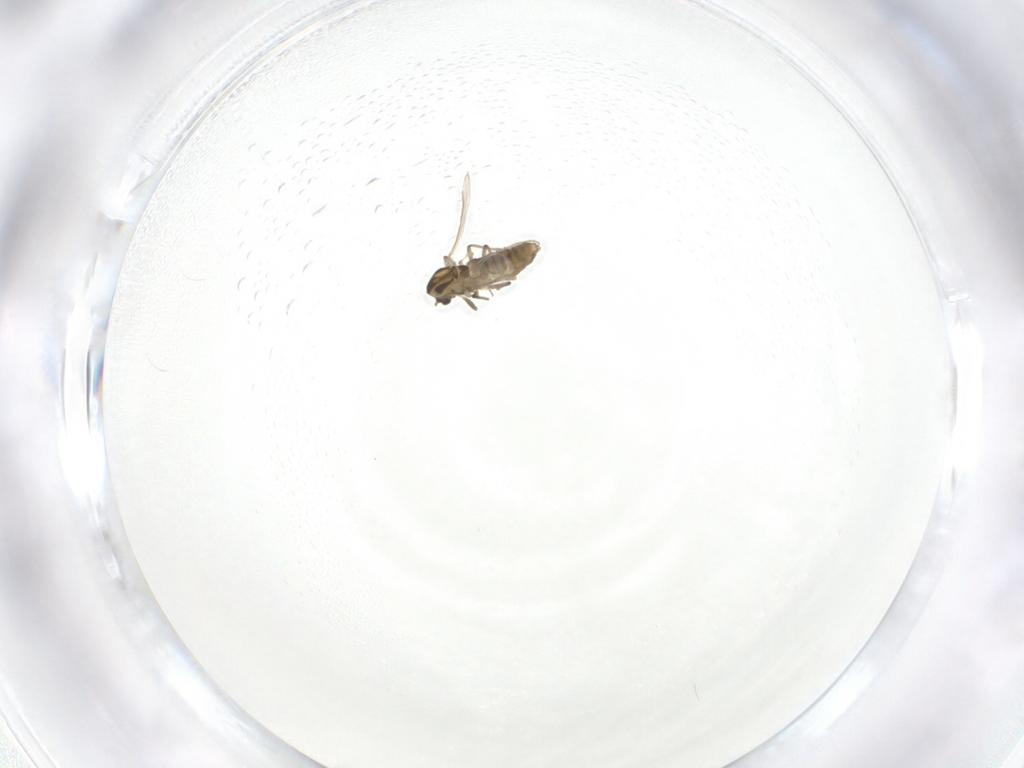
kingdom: Animalia
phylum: Arthropoda
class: Insecta
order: Diptera
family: Chironomidae
